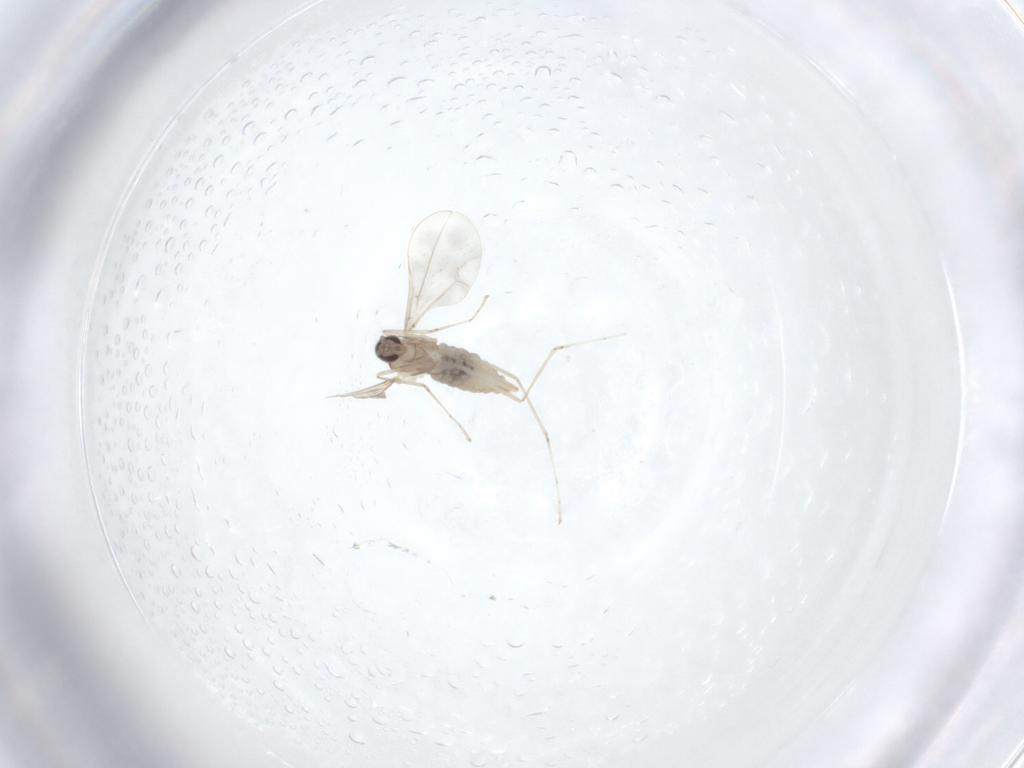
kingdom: Animalia
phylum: Arthropoda
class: Insecta
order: Diptera
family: Cecidomyiidae
